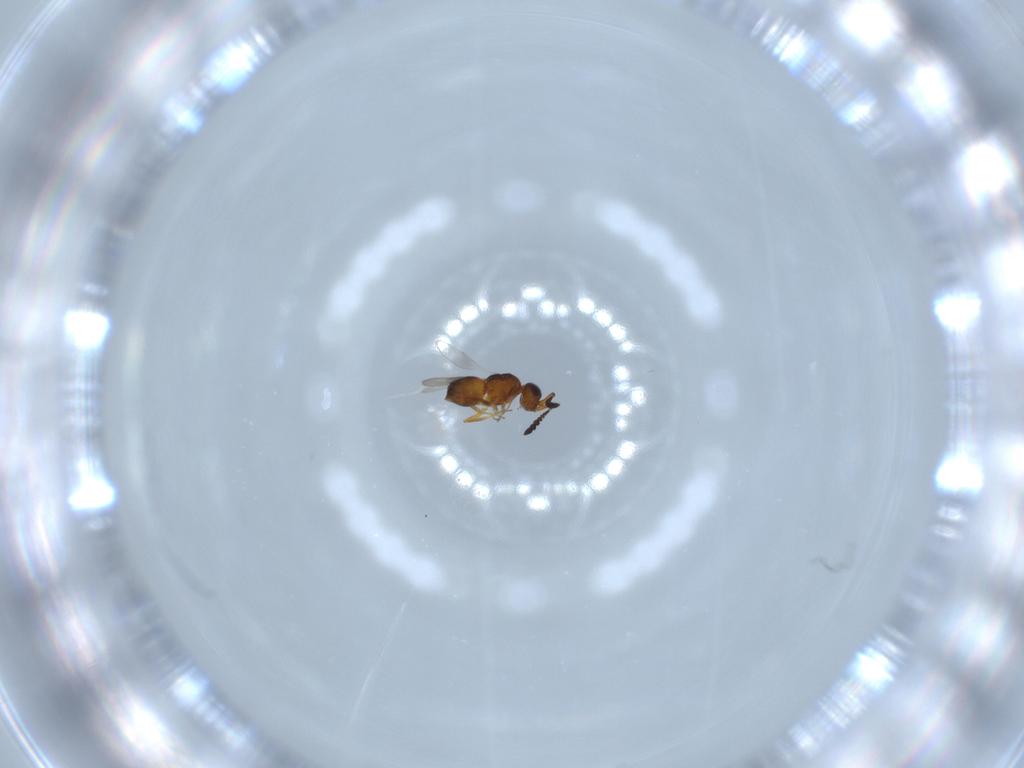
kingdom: Animalia
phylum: Arthropoda
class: Insecta
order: Hymenoptera
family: Ceraphronidae
